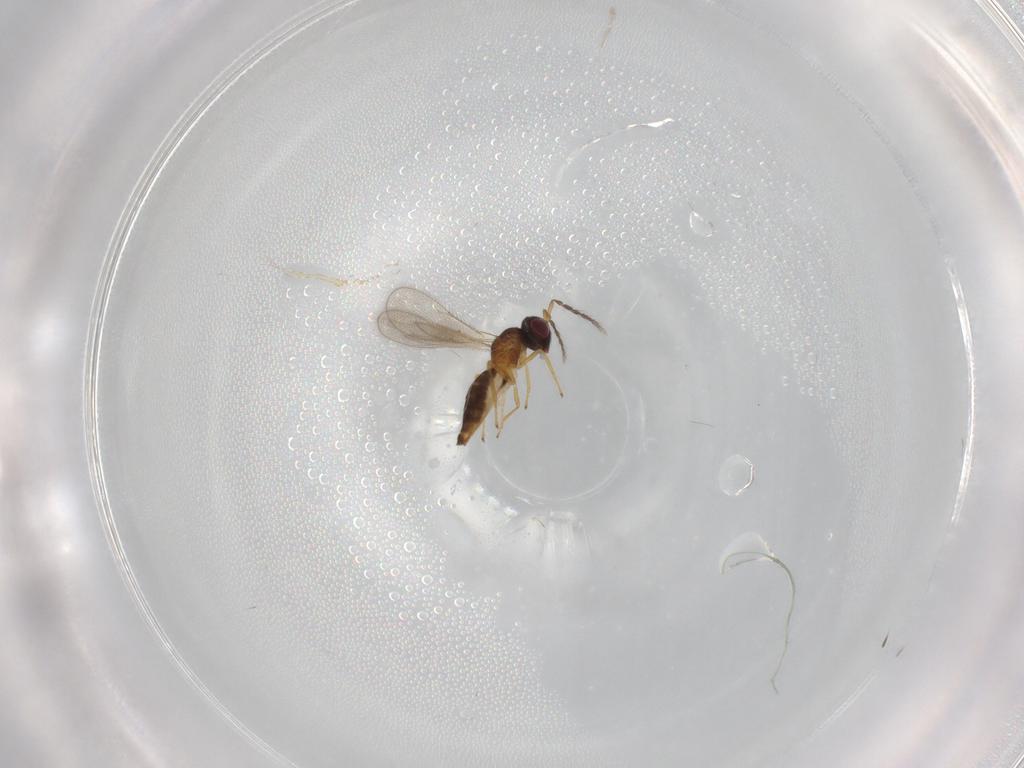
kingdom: Animalia
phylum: Arthropoda
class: Insecta
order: Hymenoptera
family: Eulophidae
